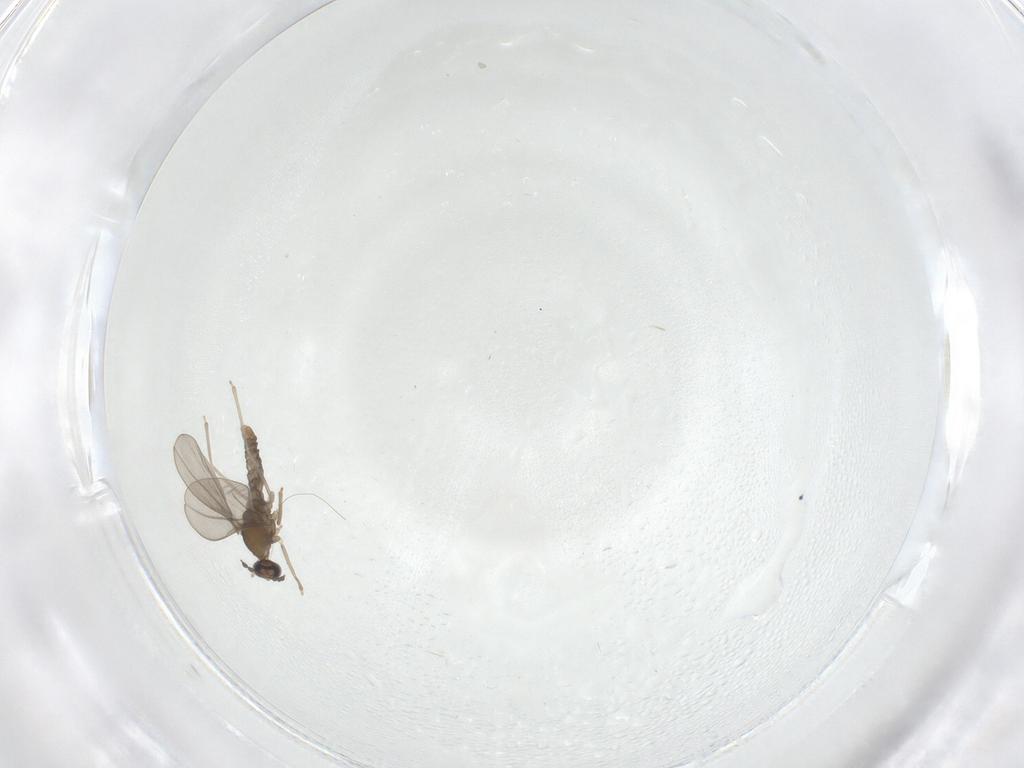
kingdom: Animalia
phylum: Arthropoda
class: Insecta
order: Diptera
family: Cecidomyiidae
